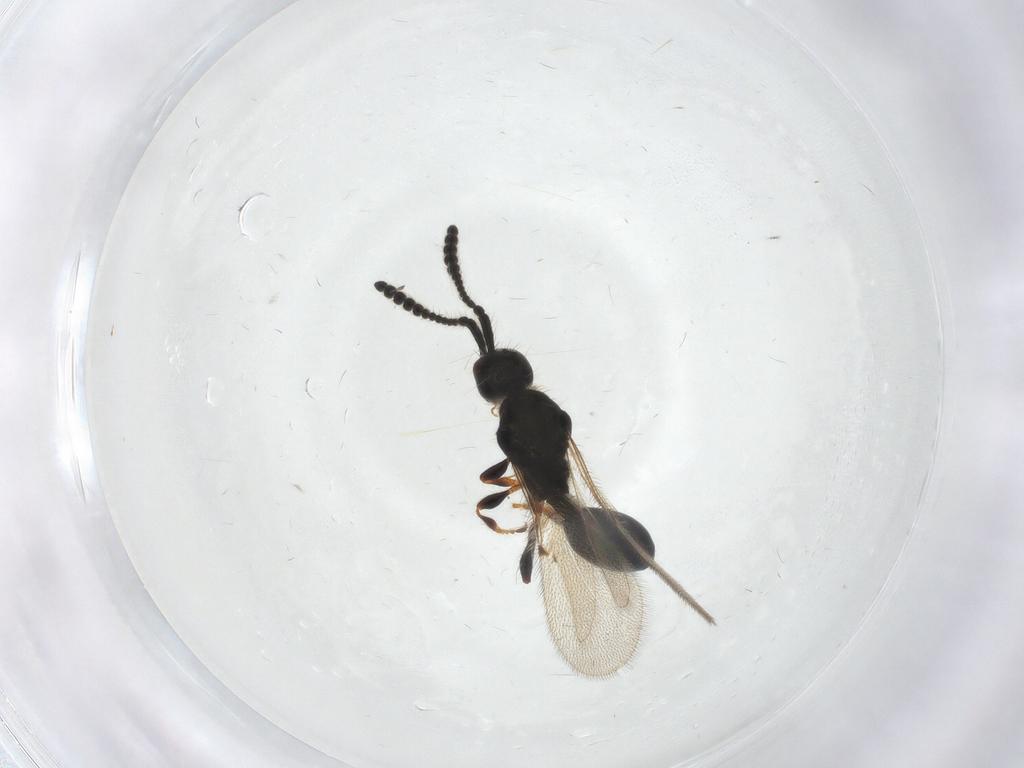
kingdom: Animalia
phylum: Arthropoda
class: Insecta
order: Hymenoptera
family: Diapriidae
